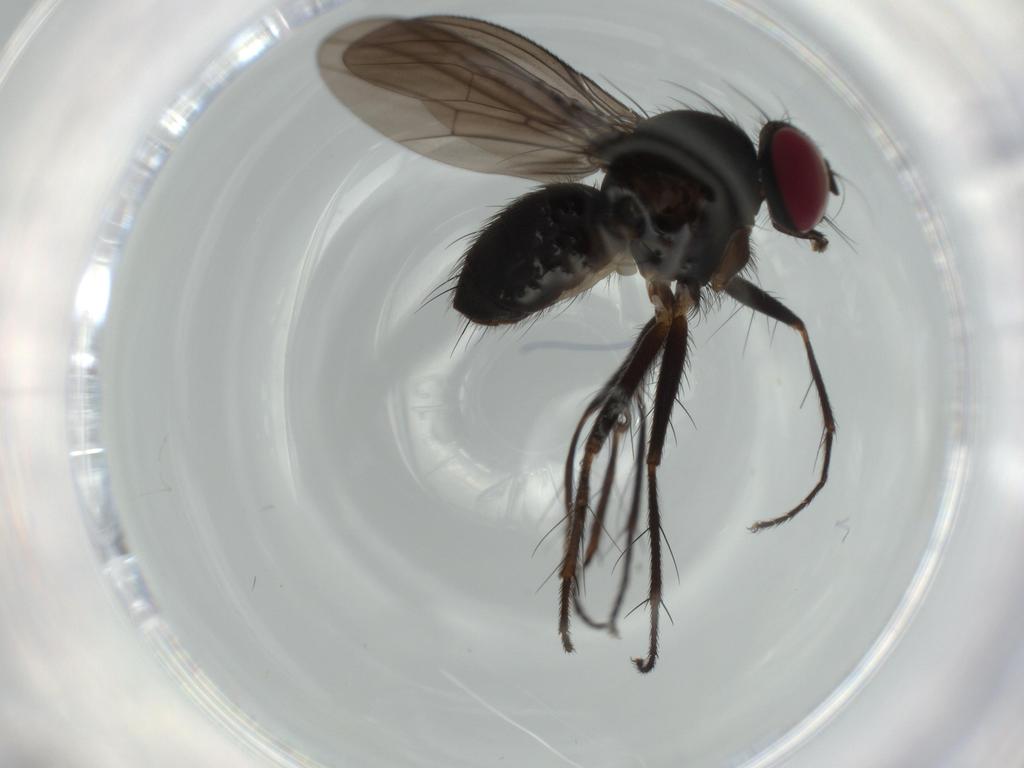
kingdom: Animalia
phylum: Arthropoda
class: Insecta
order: Diptera
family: Anthomyiidae
